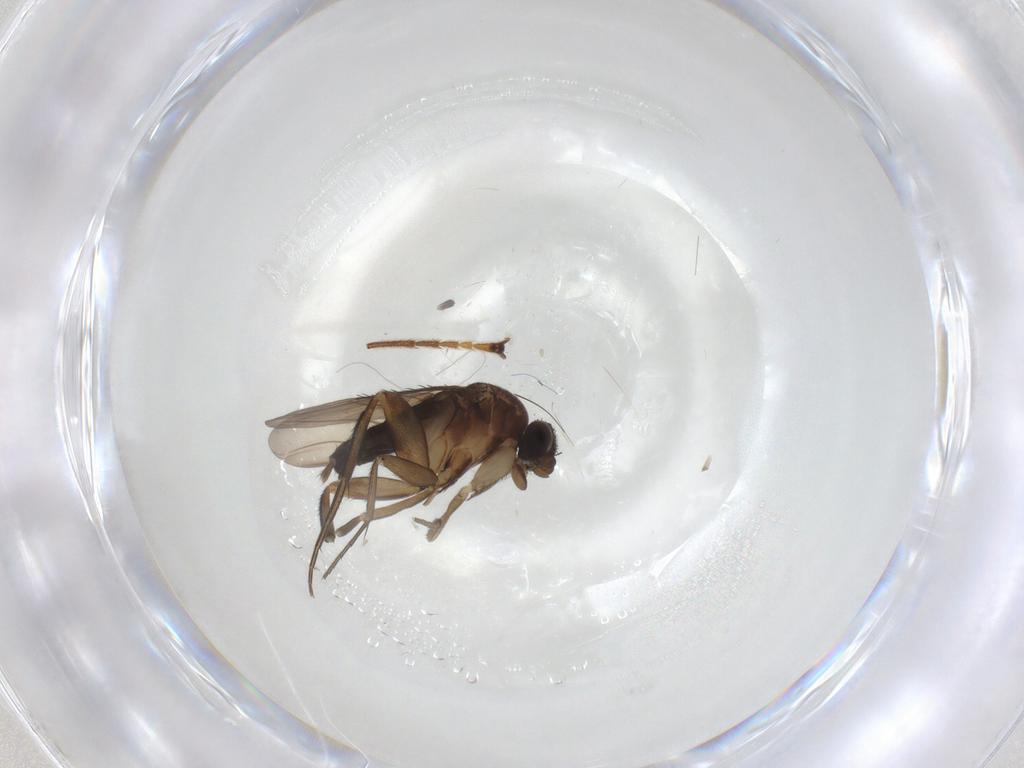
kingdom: Animalia
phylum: Arthropoda
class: Insecta
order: Diptera
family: Phoridae
